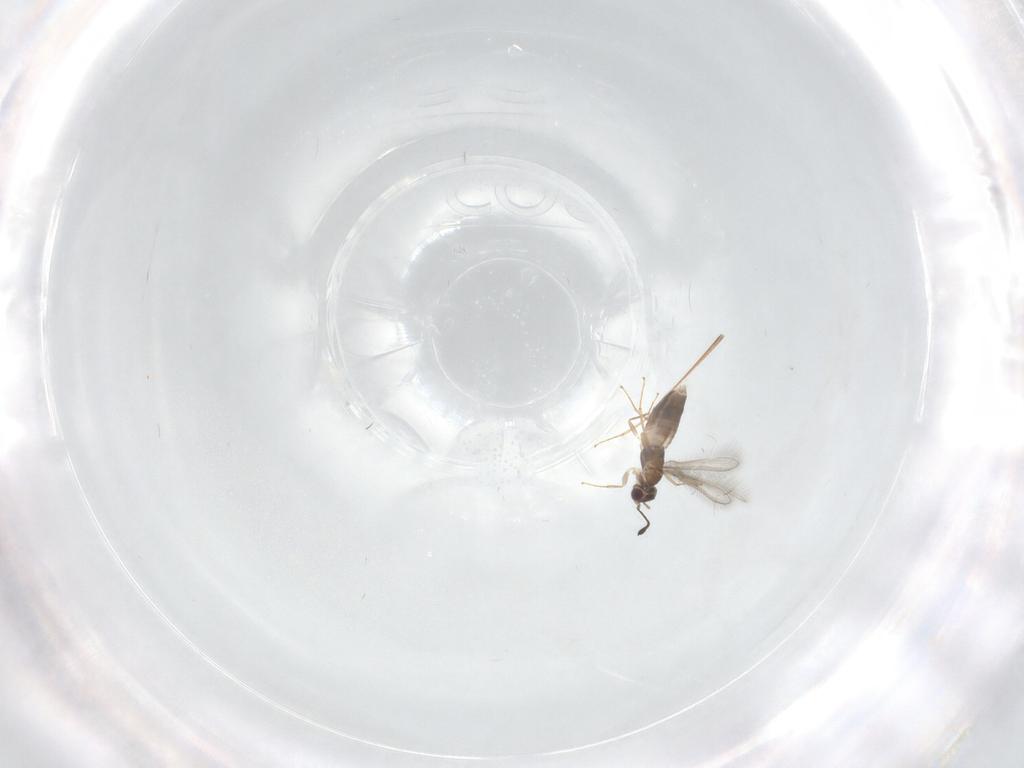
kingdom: Animalia
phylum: Arthropoda
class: Insecta
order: Hymenoptera
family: Mymaridae
